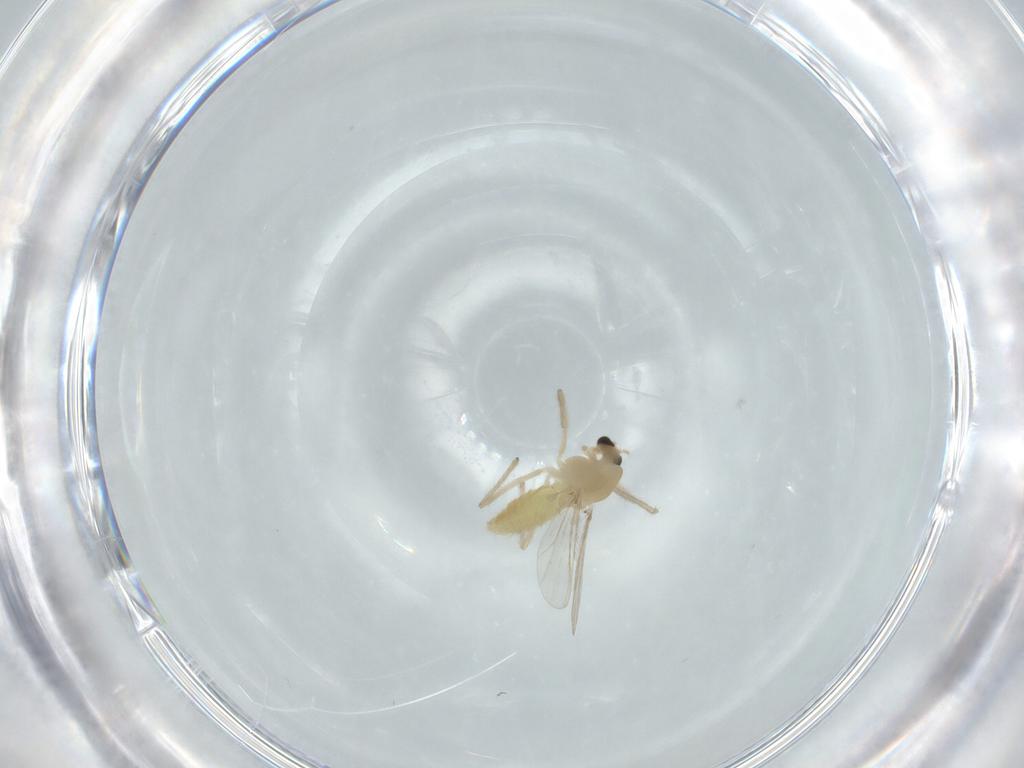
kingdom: Animalia
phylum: Arthropoda
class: Insecta
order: Diptera
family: Chironomidae
